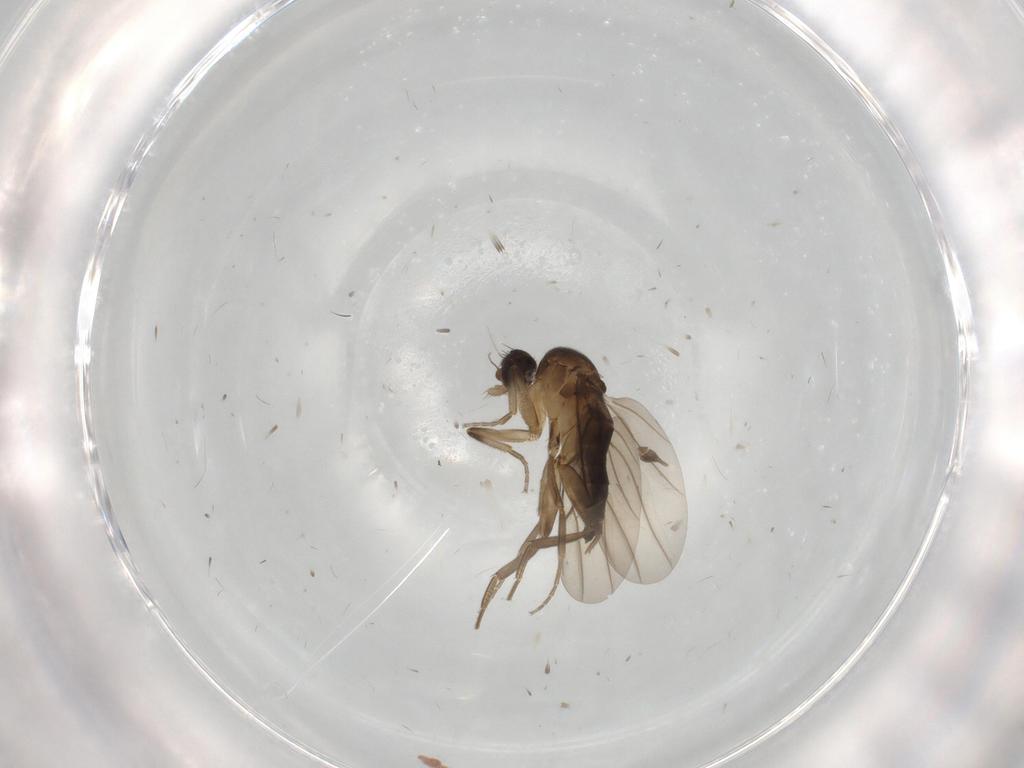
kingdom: Animalia
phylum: Arthropoda
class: Insecta
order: Diptera
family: Phoridae
